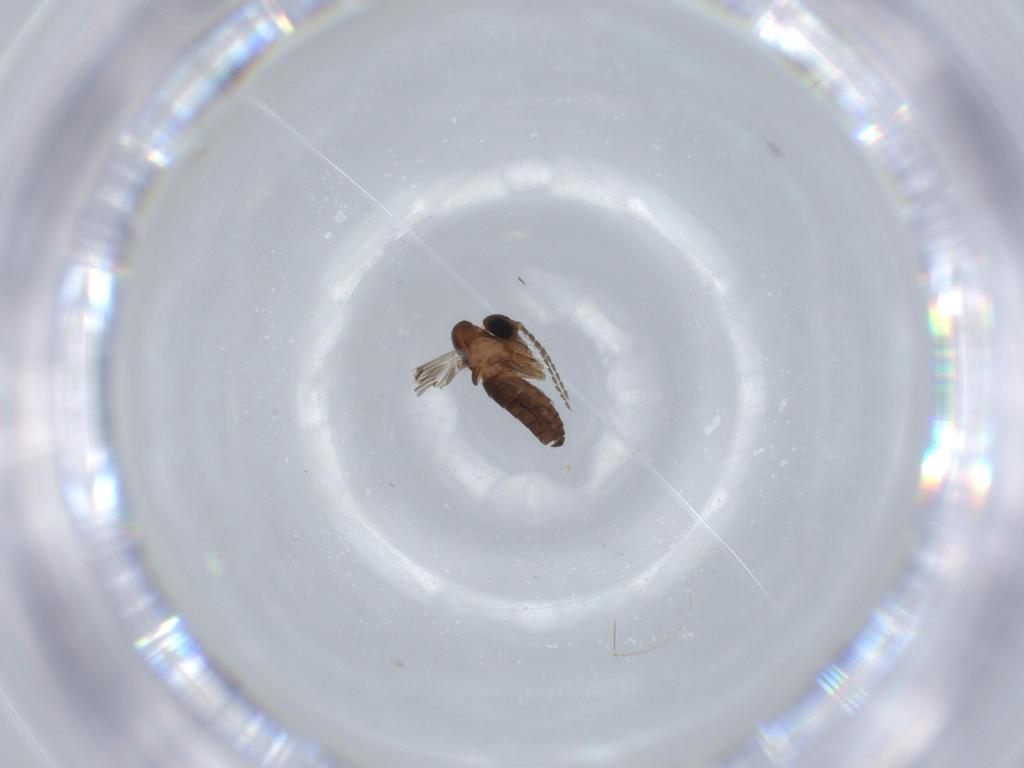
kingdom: Animalia
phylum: Arthropoda
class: Insecta
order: Diptera
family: Psychodidae
